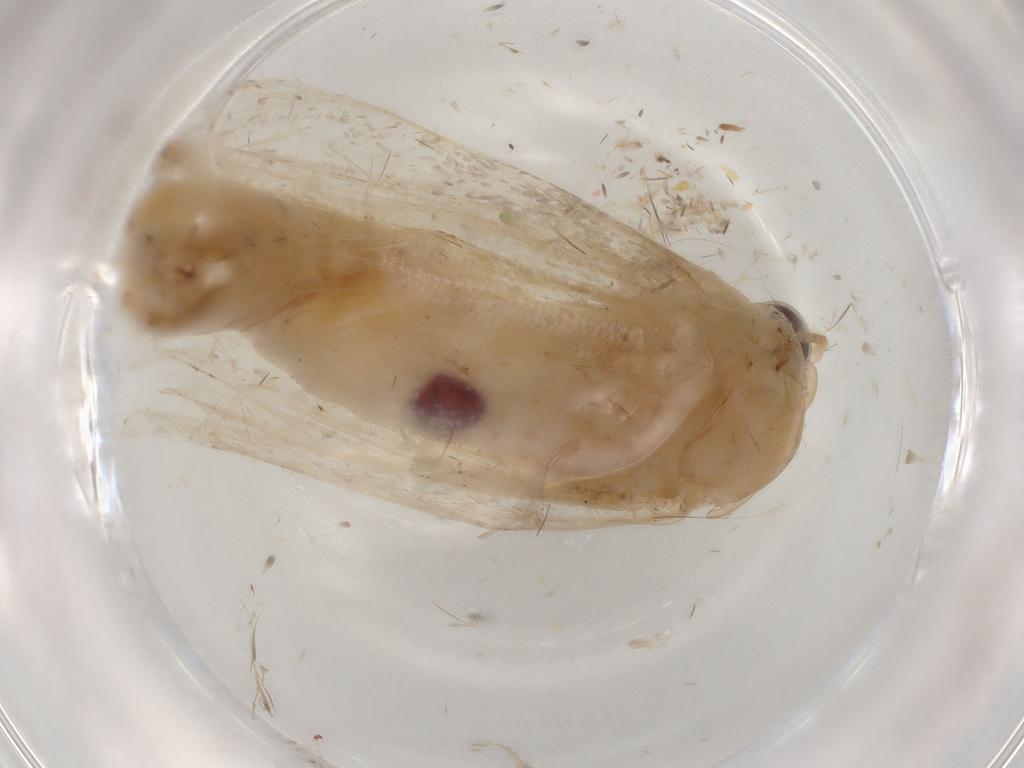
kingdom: Animalia
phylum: Arthropoda
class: Insecta
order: Lepidoptera
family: Erebidae
